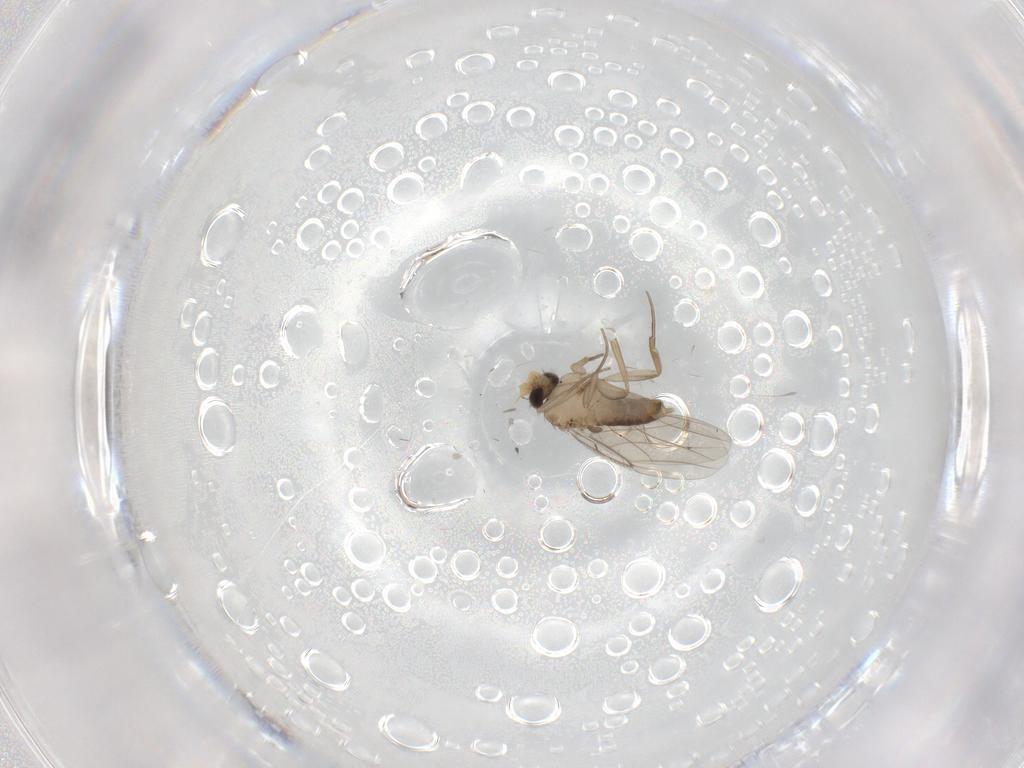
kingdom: Animalia
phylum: Arthropoda
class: Insecta
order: Diptera
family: Phoridae
